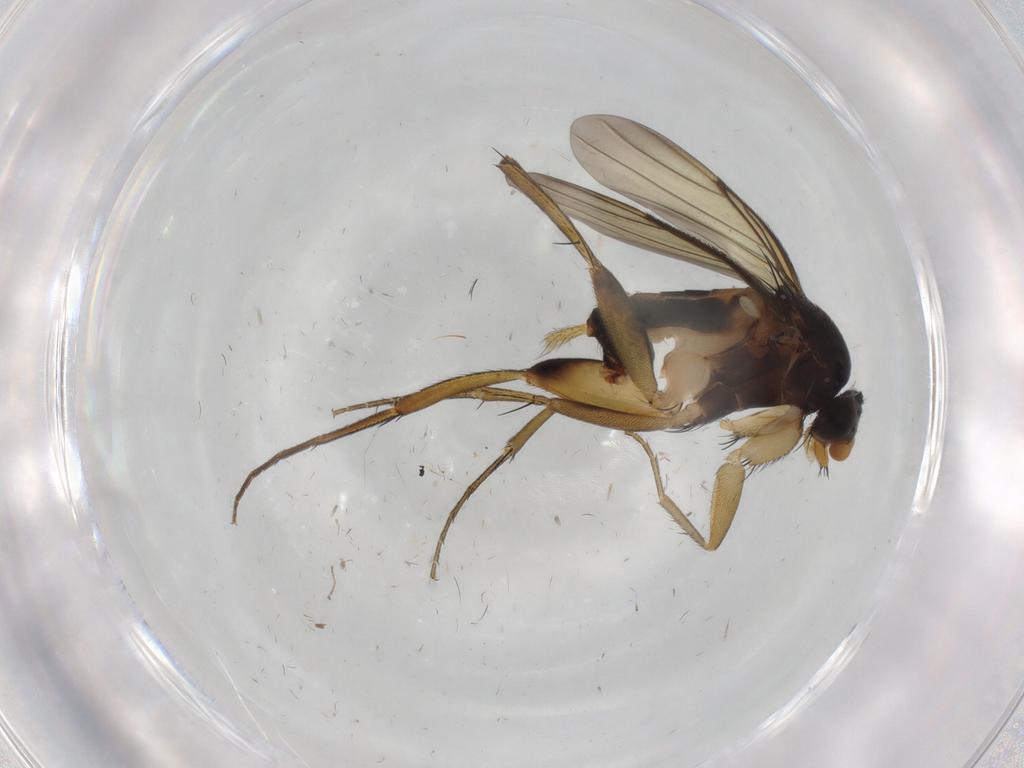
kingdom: Animalia
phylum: Arthropoda
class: Insecta
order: Diptera
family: Phoridae
